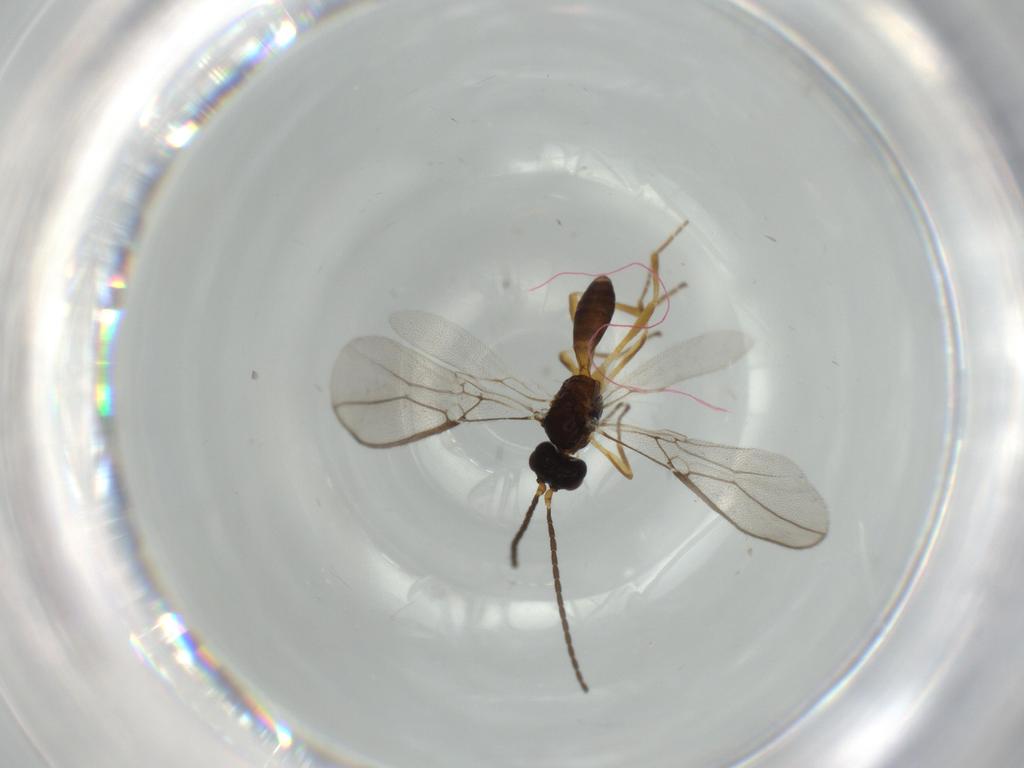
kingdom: Animalia
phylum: Arthropoda
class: Insecta
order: Hymenoptera
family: Braconidae
